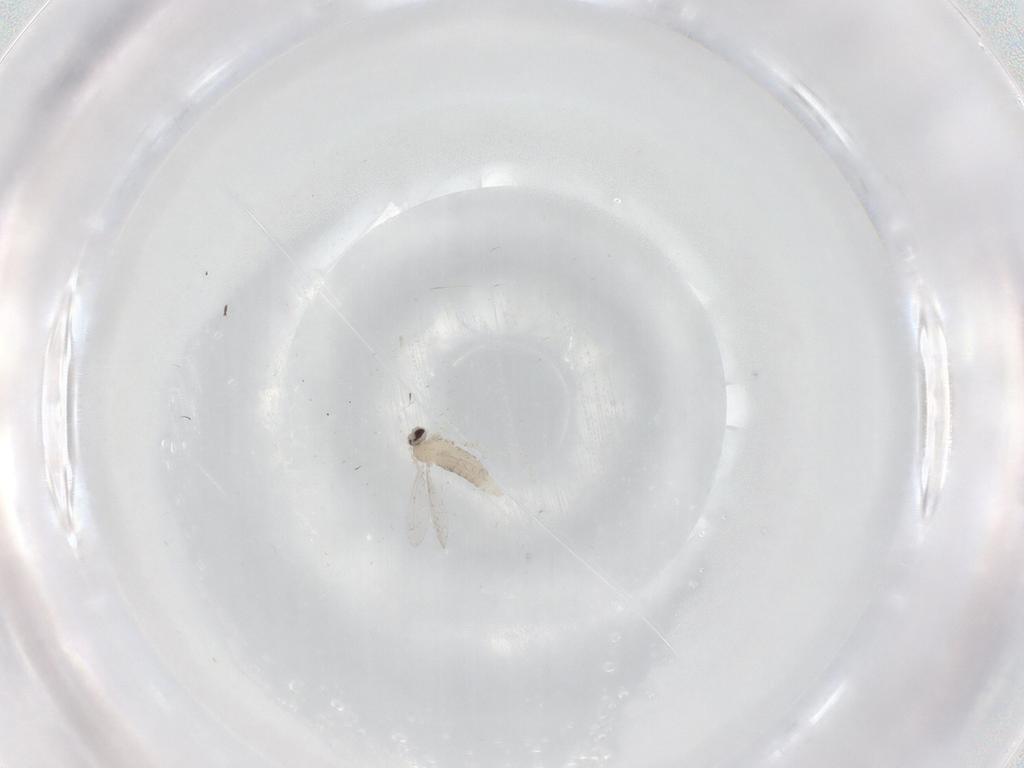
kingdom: Animalia
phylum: Arthropoda
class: Insecta
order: Diptera
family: Cecidomyiidae
